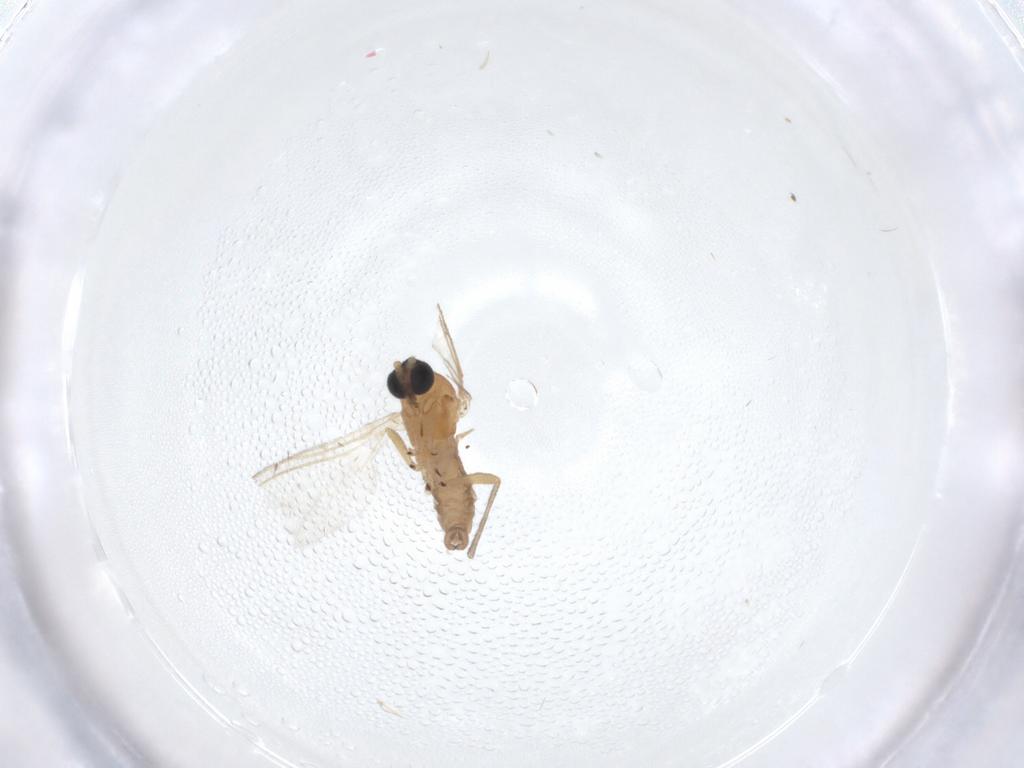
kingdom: Animalia
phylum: Arthropoda
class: Insecta
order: Diptera
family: Sciaridae
